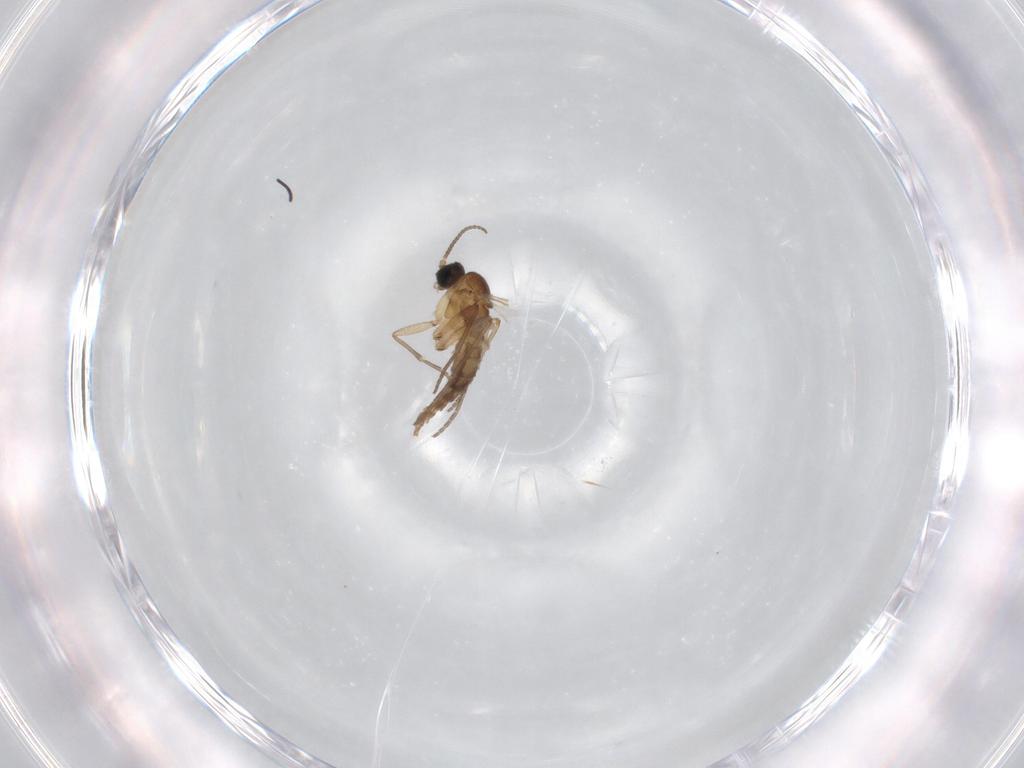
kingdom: Animalia
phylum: Arthropoda
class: Insecta
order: Diptera
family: Sciaridae
